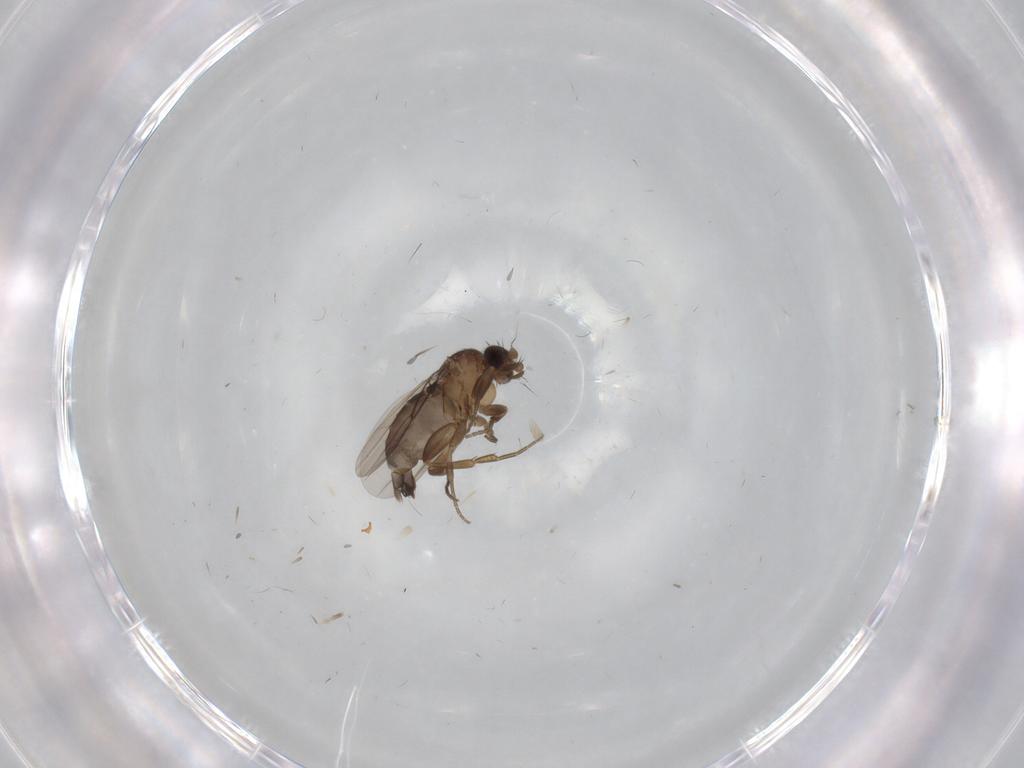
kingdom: Animalia
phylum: Arthropoda
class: Insecta
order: Diptera
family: Phoridae
